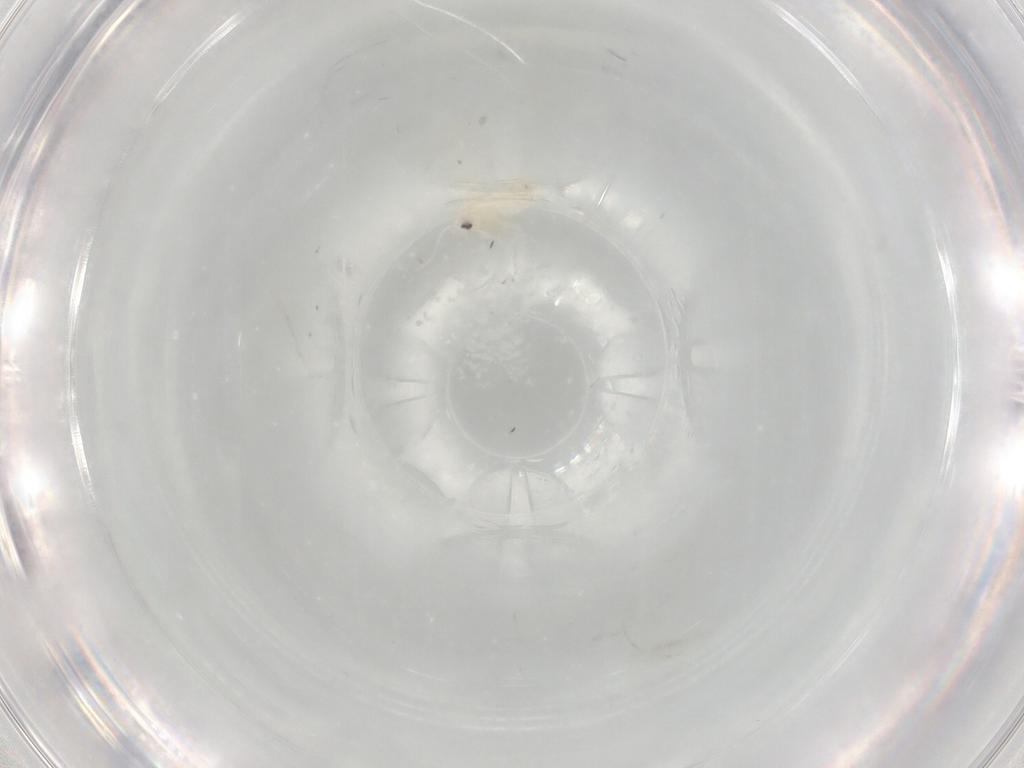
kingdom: Animalia
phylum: Arthropoda
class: Insecta
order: Hemiptera
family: Aleyrodidae
